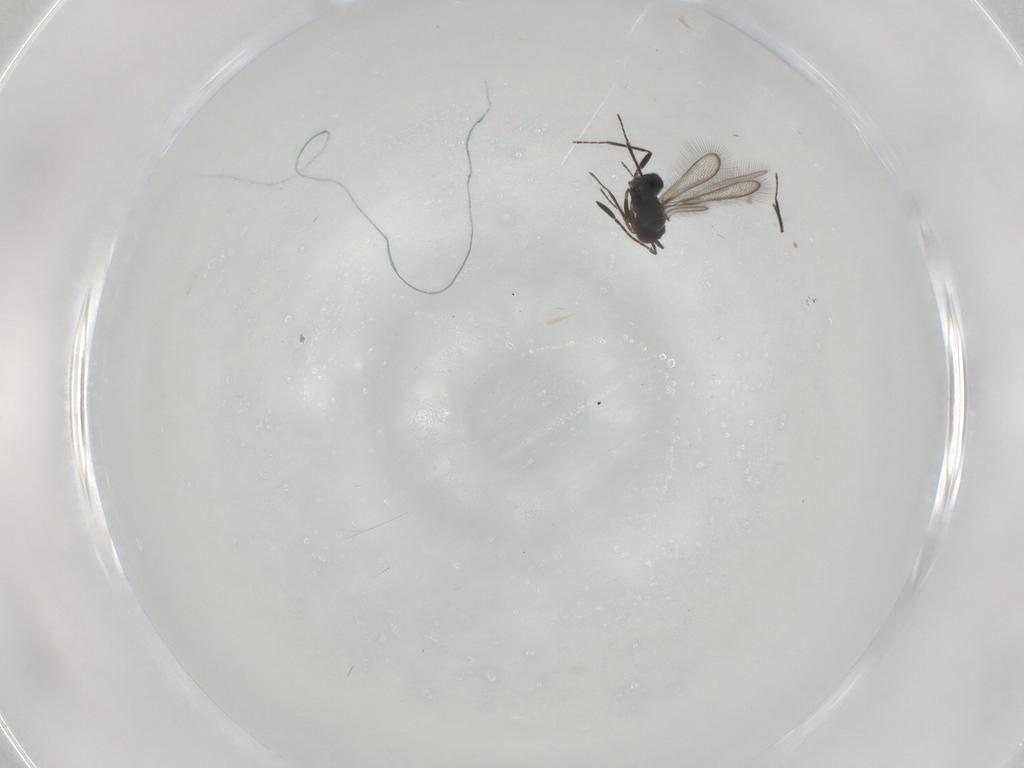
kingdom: Animalia
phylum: Arthropoda
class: Insecta
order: Hymenoptera
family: Mymaridae
